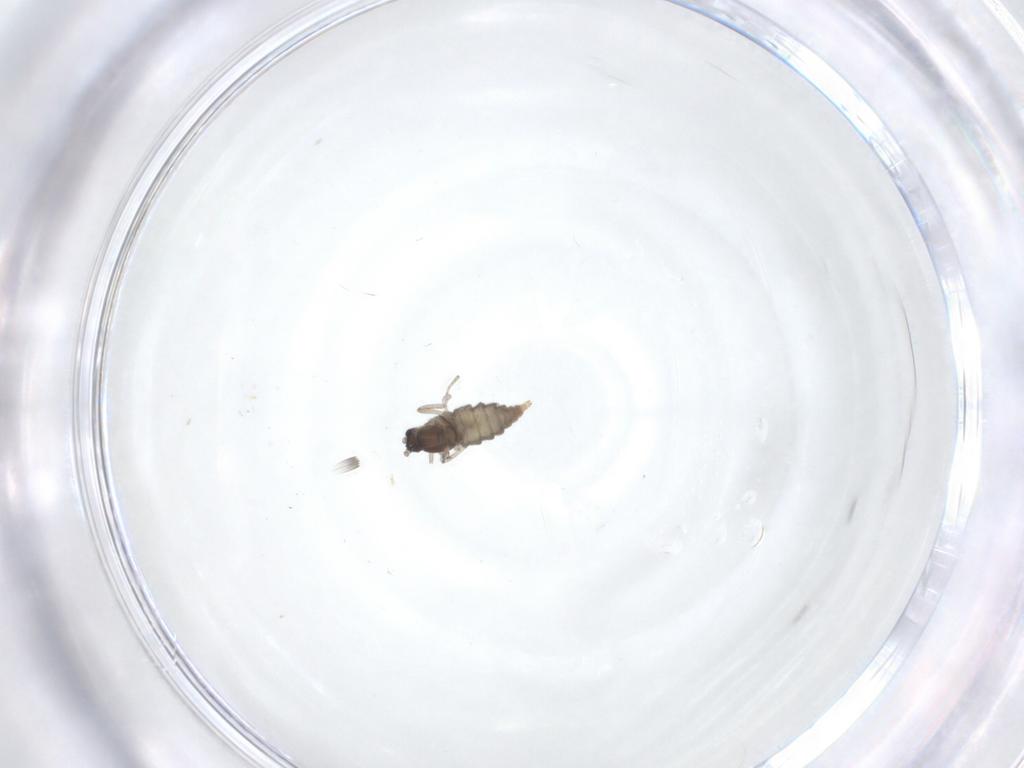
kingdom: Animalia
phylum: Arthropoda
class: Insecta
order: Diptera
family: Cecidomyiidae
